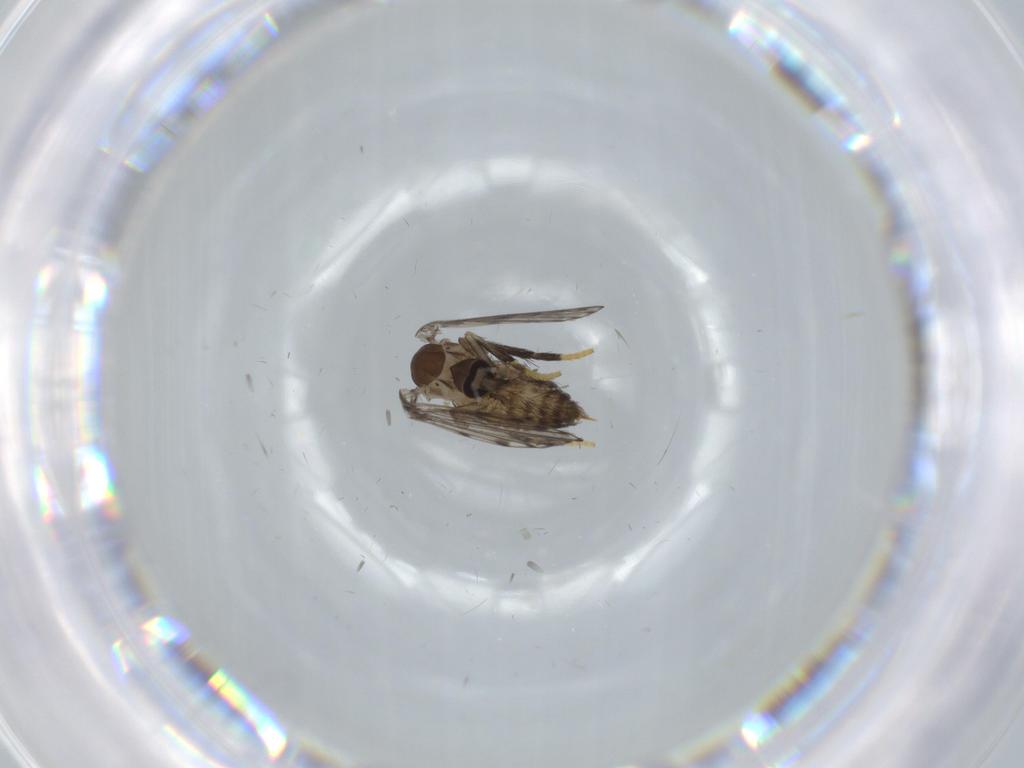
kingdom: Animalia
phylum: Arthropoda
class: Insecta
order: Diptera
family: Psychodidae
